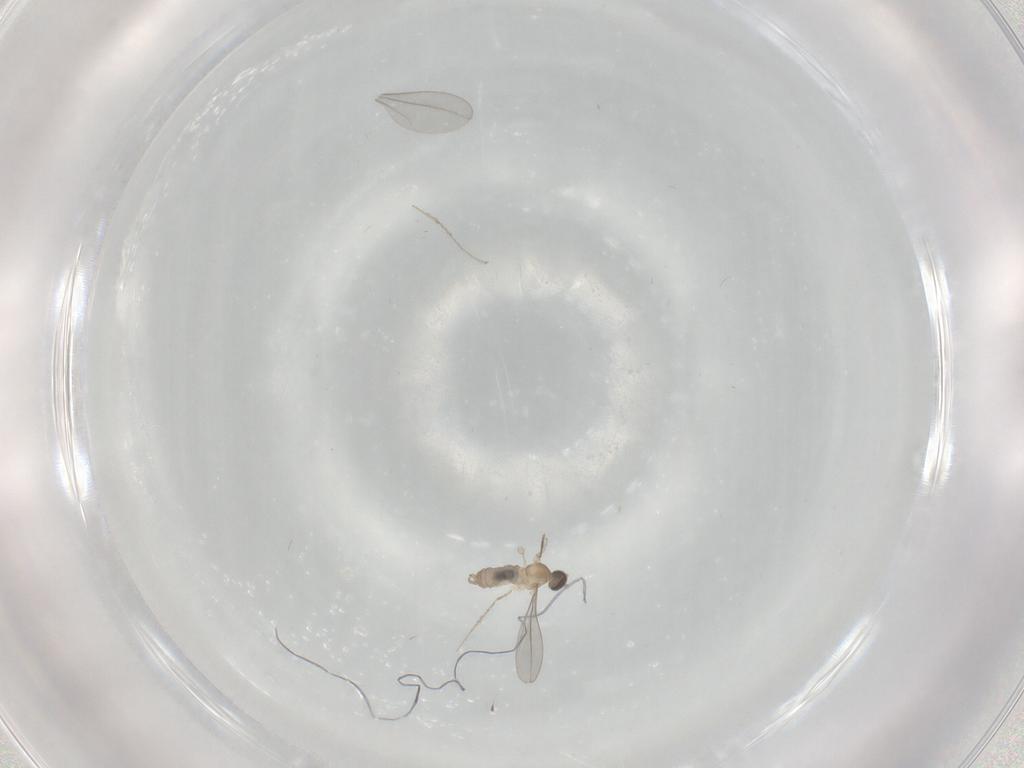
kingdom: Animalia
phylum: Arthropoda
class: Insecta
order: Diptera
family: Cecidomyiidae
